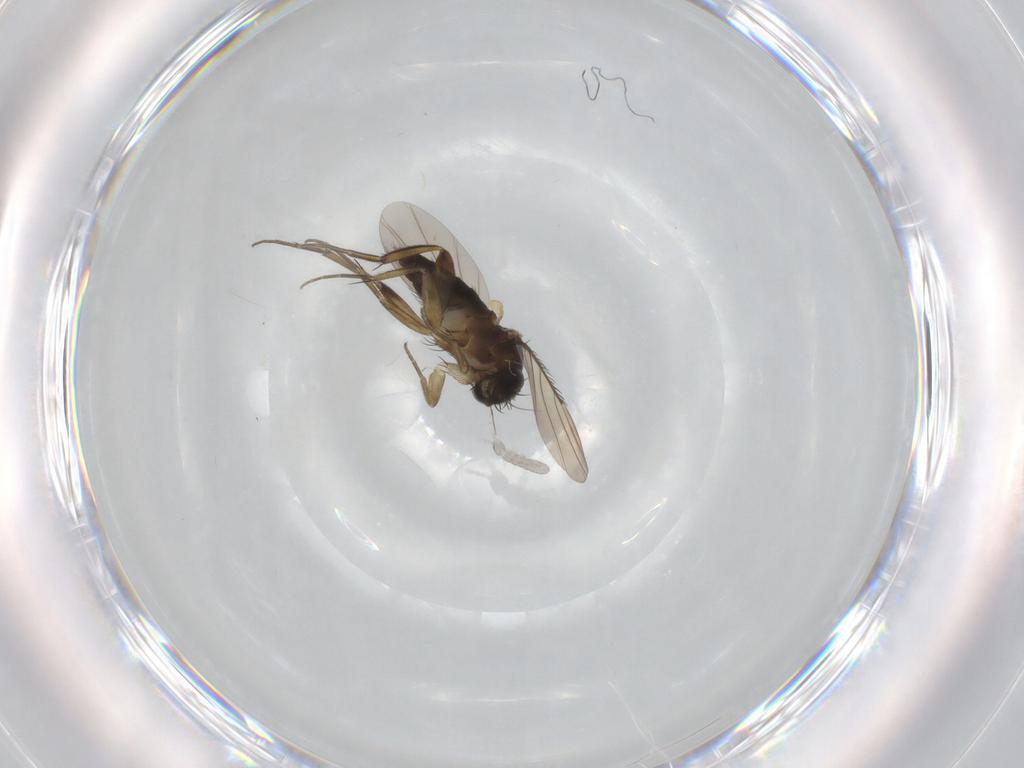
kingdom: Animalia
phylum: Arthropoda
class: Insecta
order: Diptera
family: Phoridae
